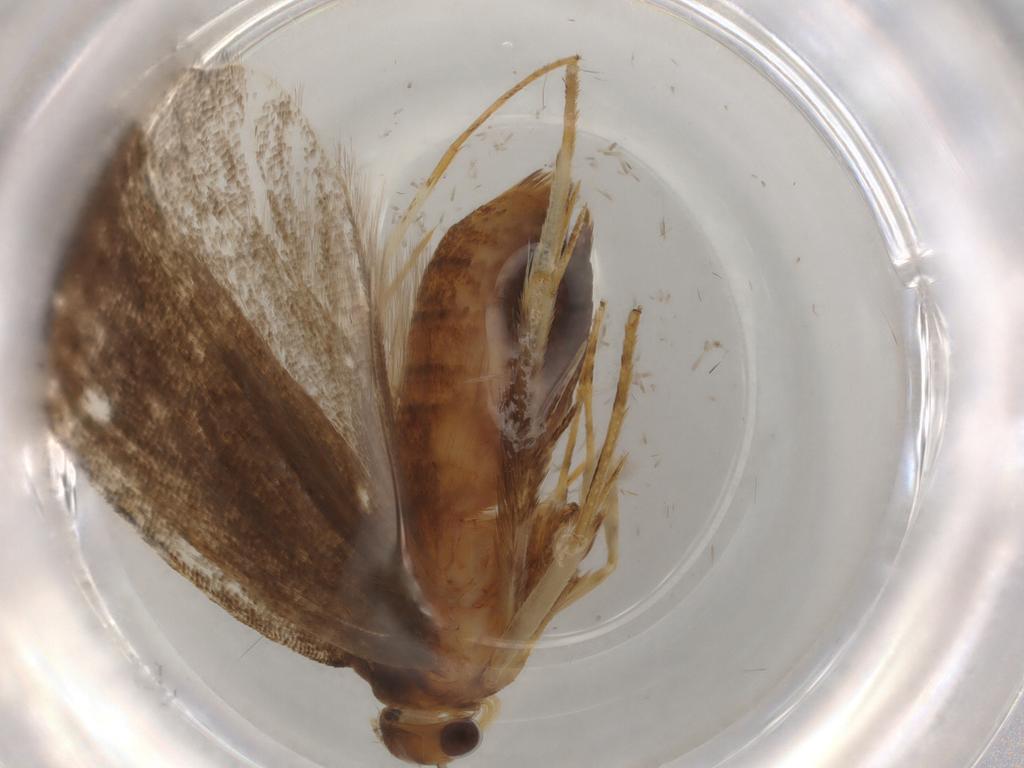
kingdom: Animalia
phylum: Arthropoda
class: Insecta
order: Lepidoptera
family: Lecithoceridae
